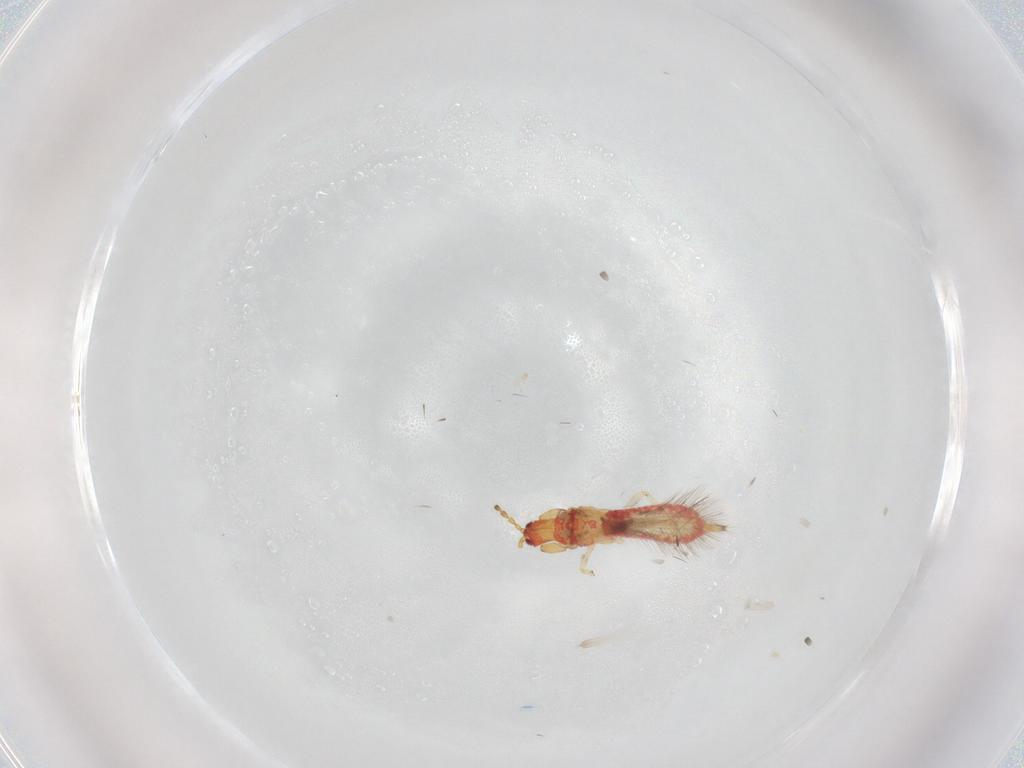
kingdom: Animalia
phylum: Arthropoda
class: Insecta
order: Thysanoptera
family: Phlaeothripidae
